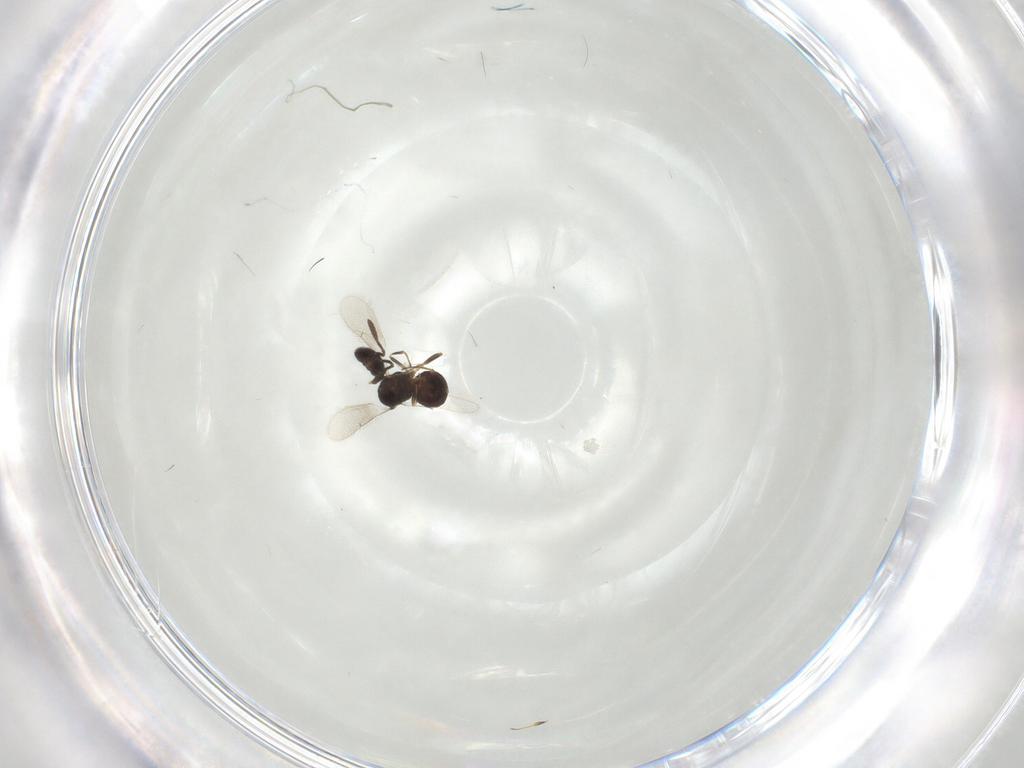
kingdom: Animalia
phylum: Arthropoda
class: Insecta
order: Hymenoptera
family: Scelionidae
